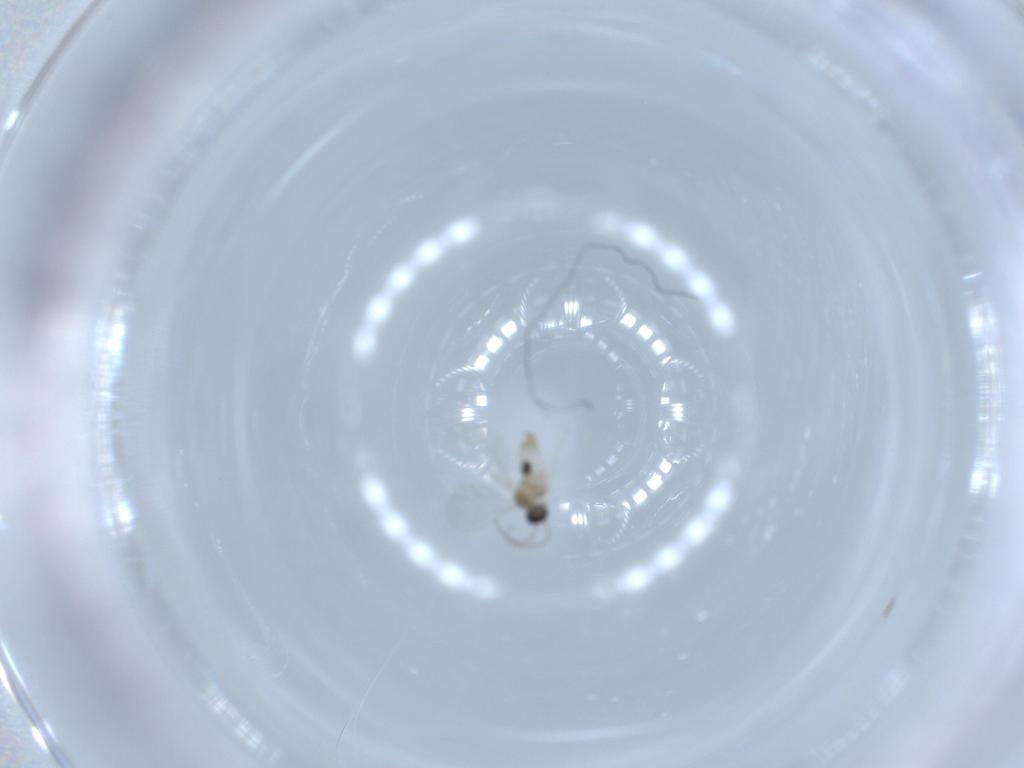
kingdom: Animalia
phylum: Arthropoda
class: Insecta
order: Diptera
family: Cecidomyiidae
